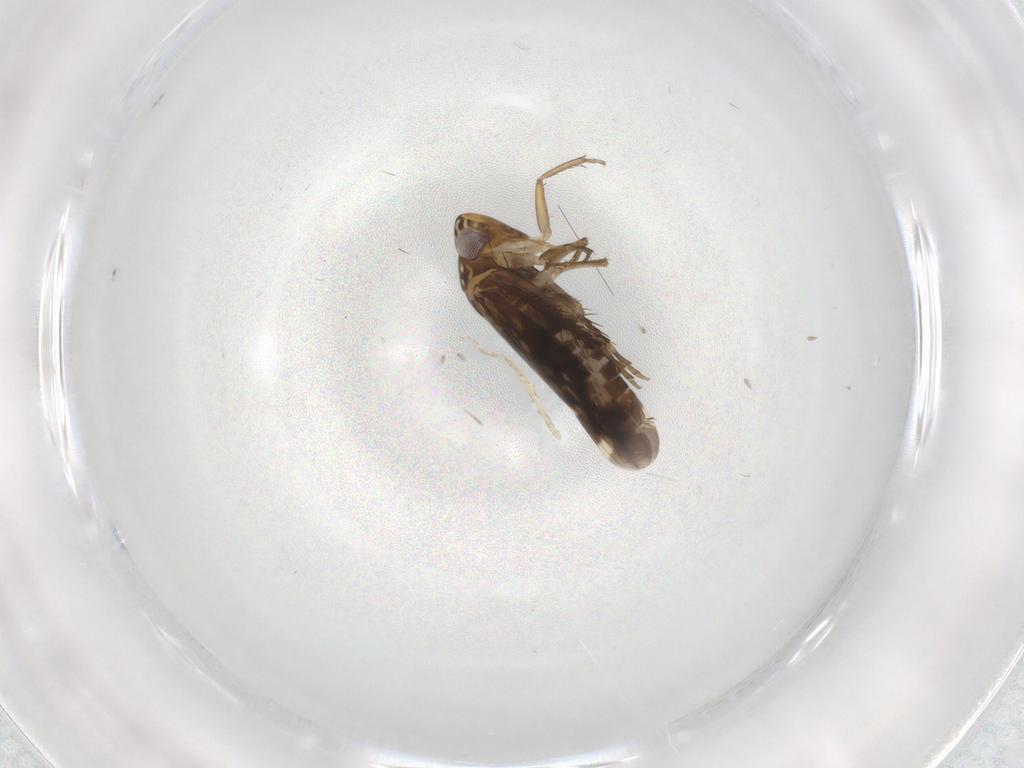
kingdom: Animalia
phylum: Arthropoda
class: Insecta
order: Hemiptera
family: Cicadellidae
